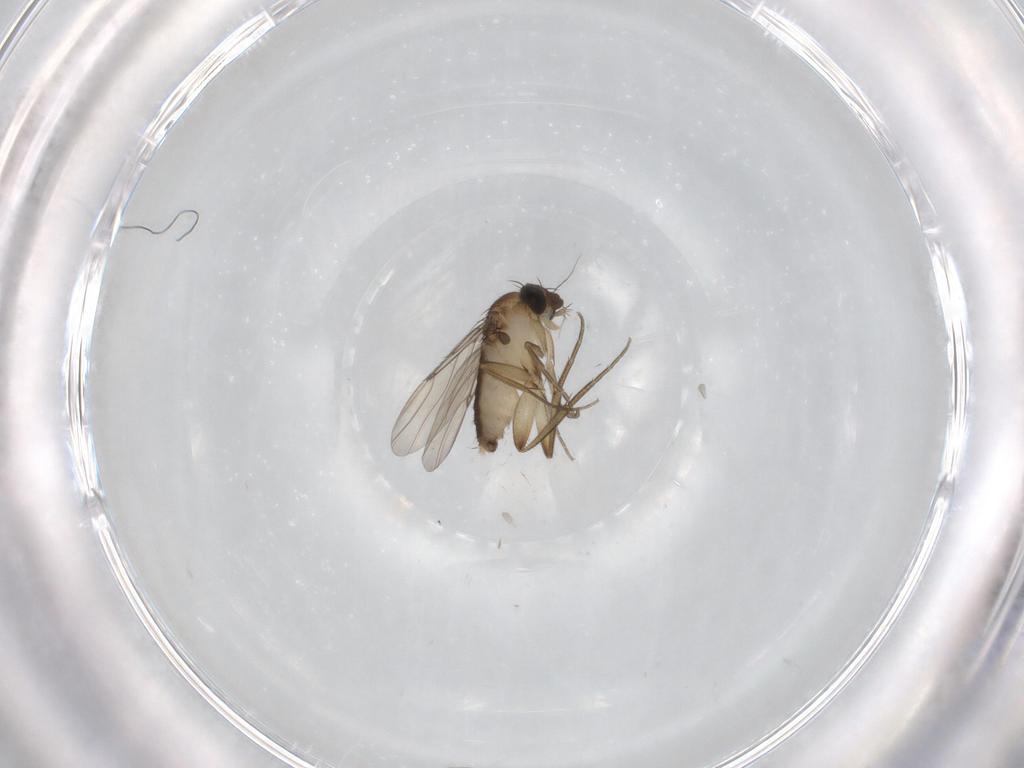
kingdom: Animalia
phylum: Arthropoda
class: Insecta
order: Diptera
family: Phoridae
